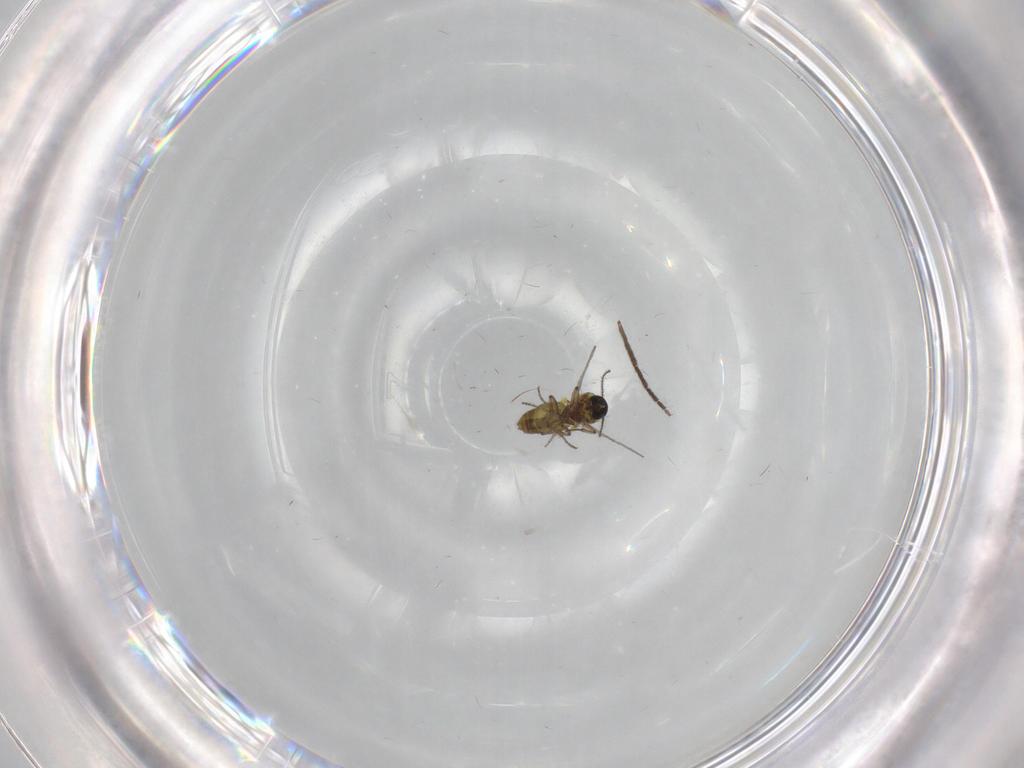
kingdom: Animalia
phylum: Arthropoda
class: Insecta
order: Diptera
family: Ceratopogonidae
